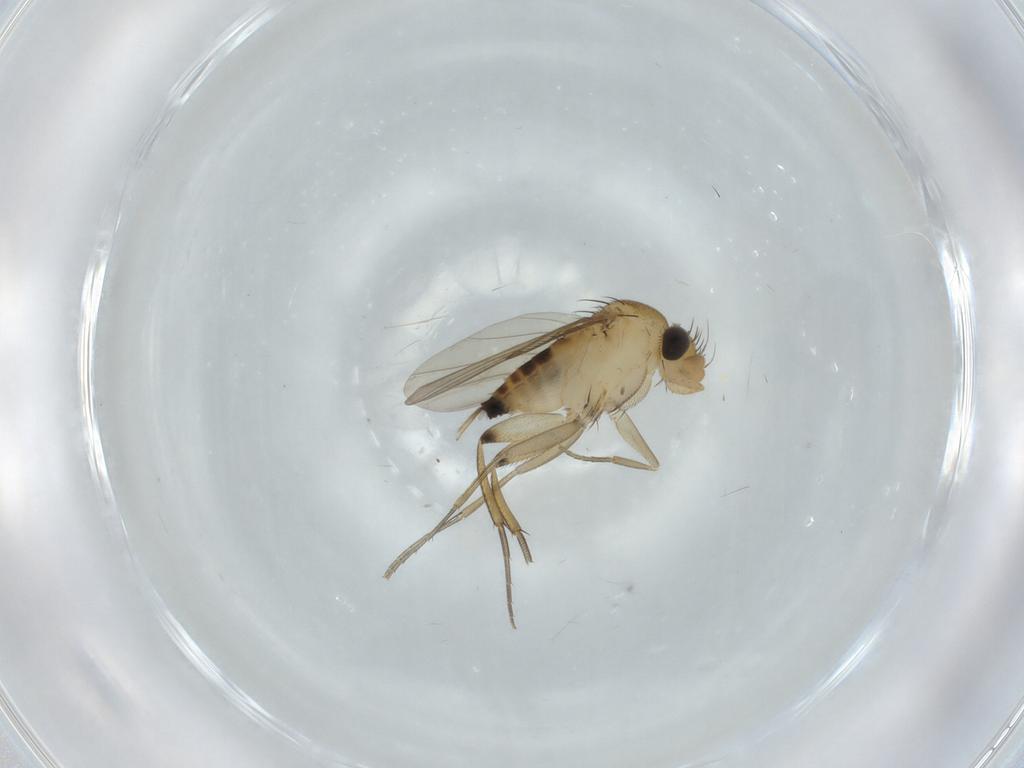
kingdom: Animalia
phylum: Arthropoda
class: Insecta
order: Diptera
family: Phoridae
